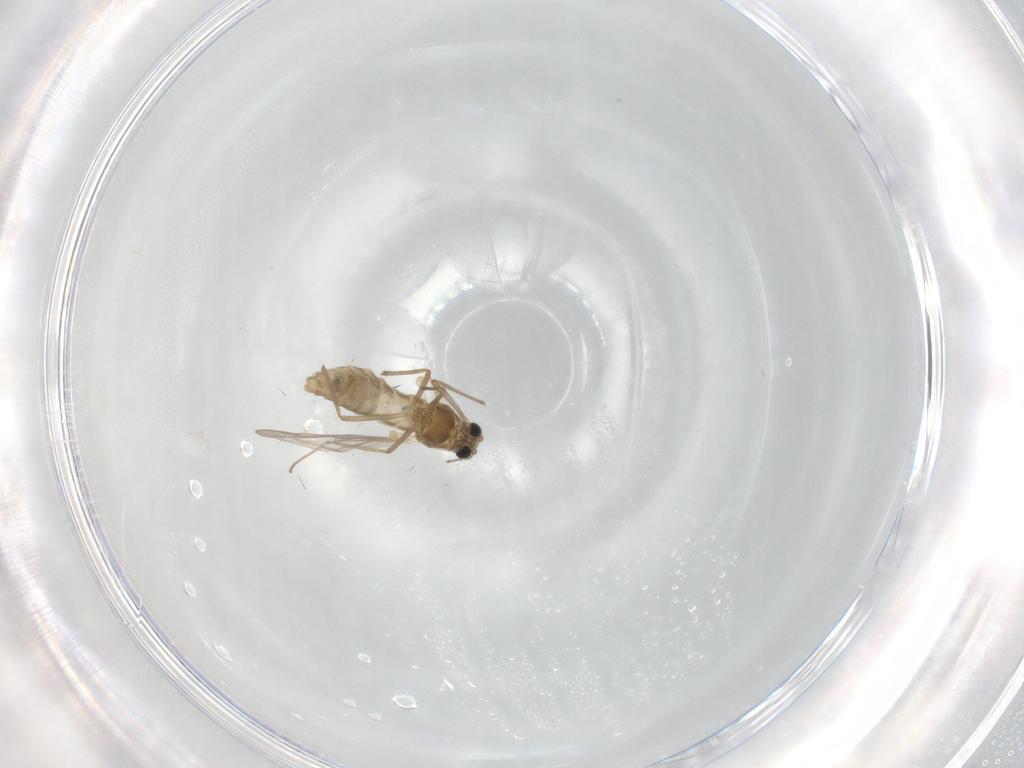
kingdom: Animalia
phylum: Arthropoda
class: Insecta
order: Diptera
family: Chironomidae
